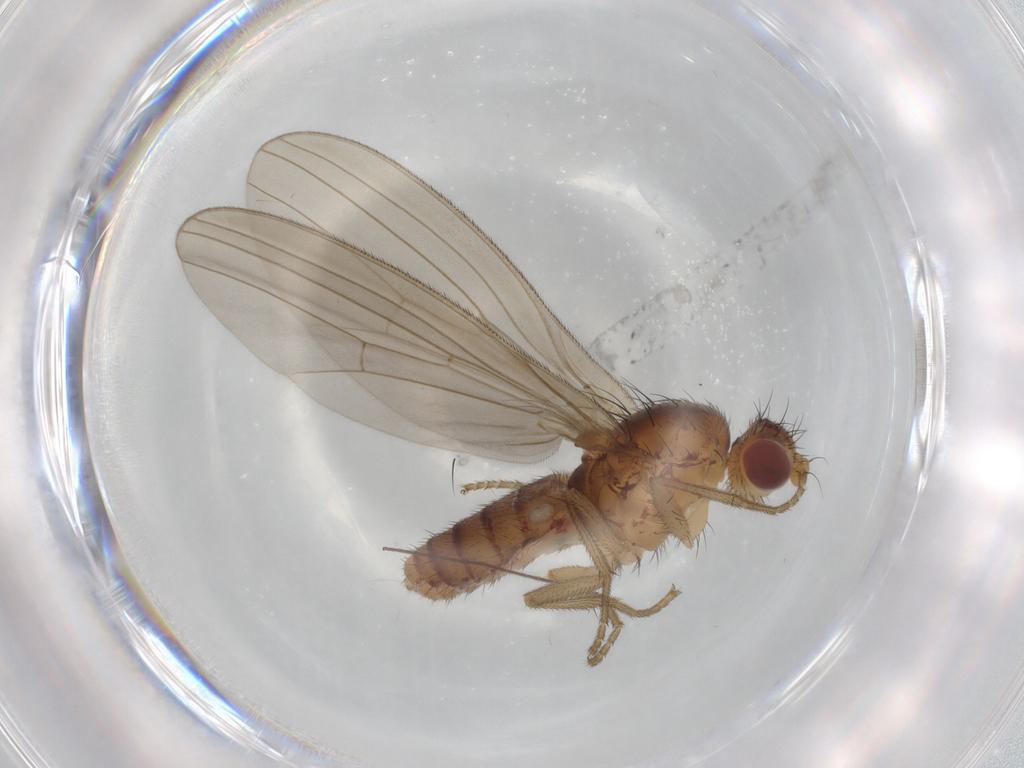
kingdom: Animalia
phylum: Arthropoda
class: Insecta
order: Diptera
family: Natalimyzidae
